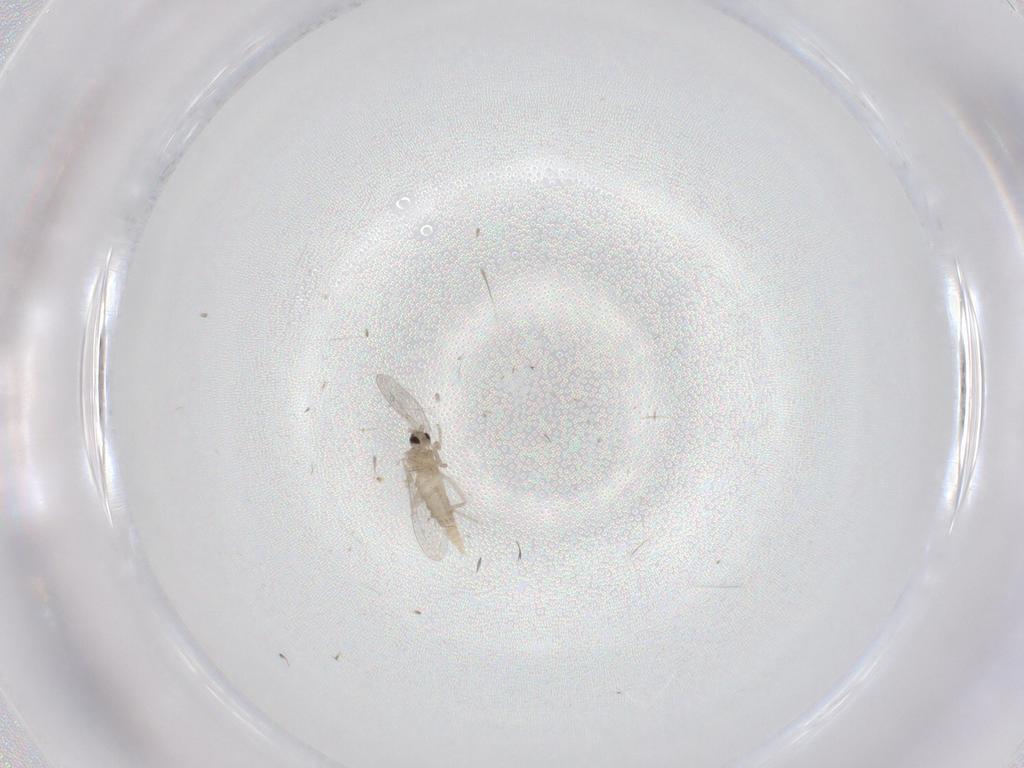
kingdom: Animalia
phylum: Arthropoda
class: Insecta
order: Diptera
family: Cecidomyiidae
